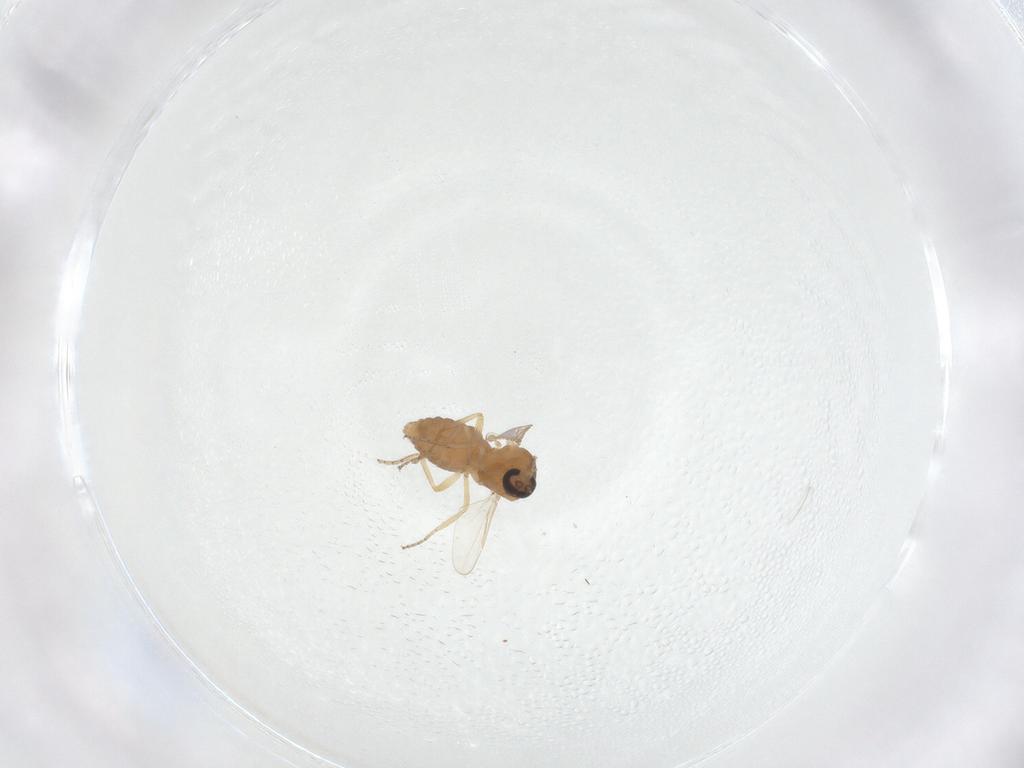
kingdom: Animalia
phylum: Arthropoda
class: Insecta
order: Diptera
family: Ceratopogonidae
